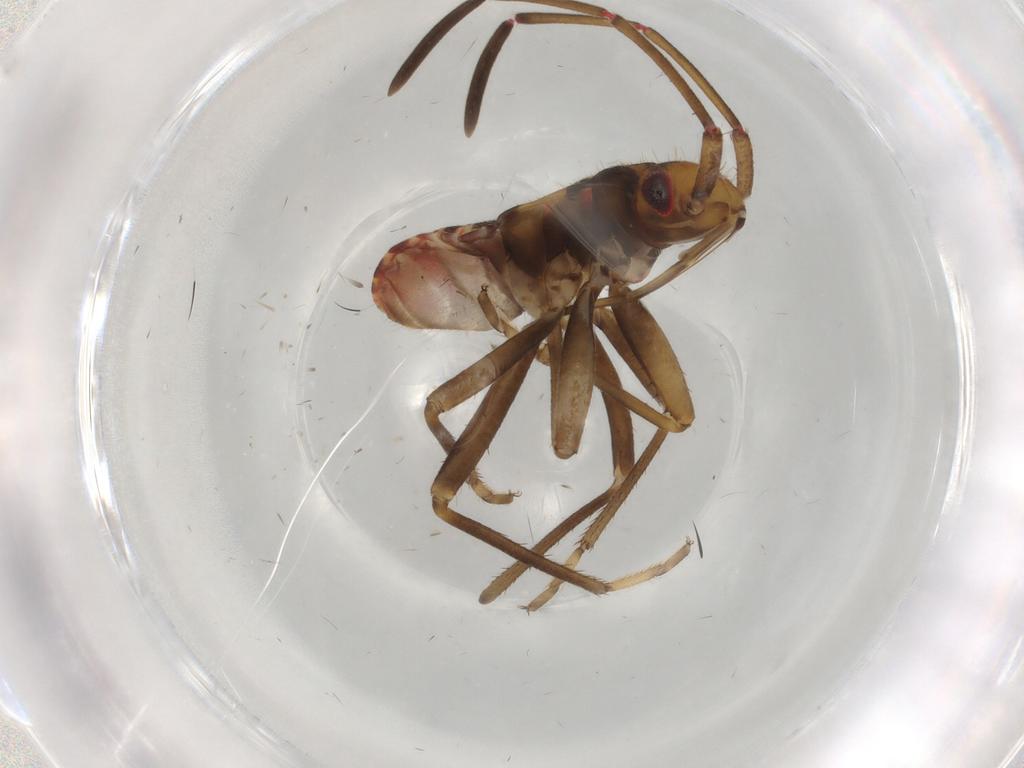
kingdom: Animalia
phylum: Arthropoda
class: Insecta
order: Hemiptera
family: Rhyparochromidae
